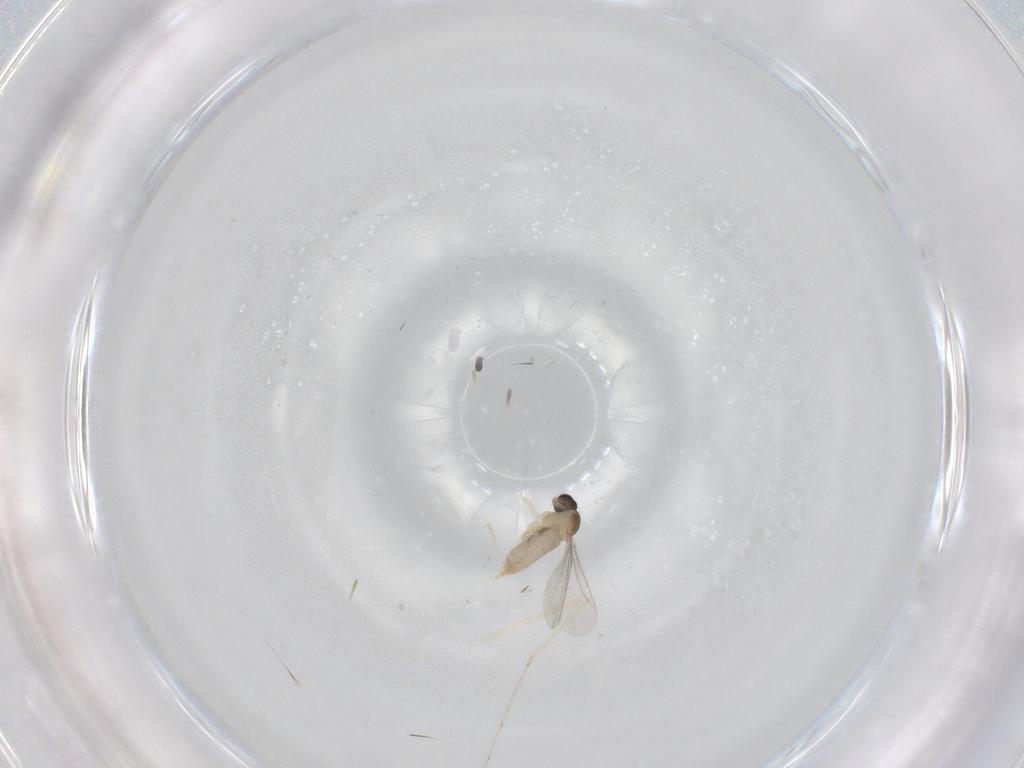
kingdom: Animalia
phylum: Arthropoda
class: Insecta
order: Diptera
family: Cecidomyiidae
